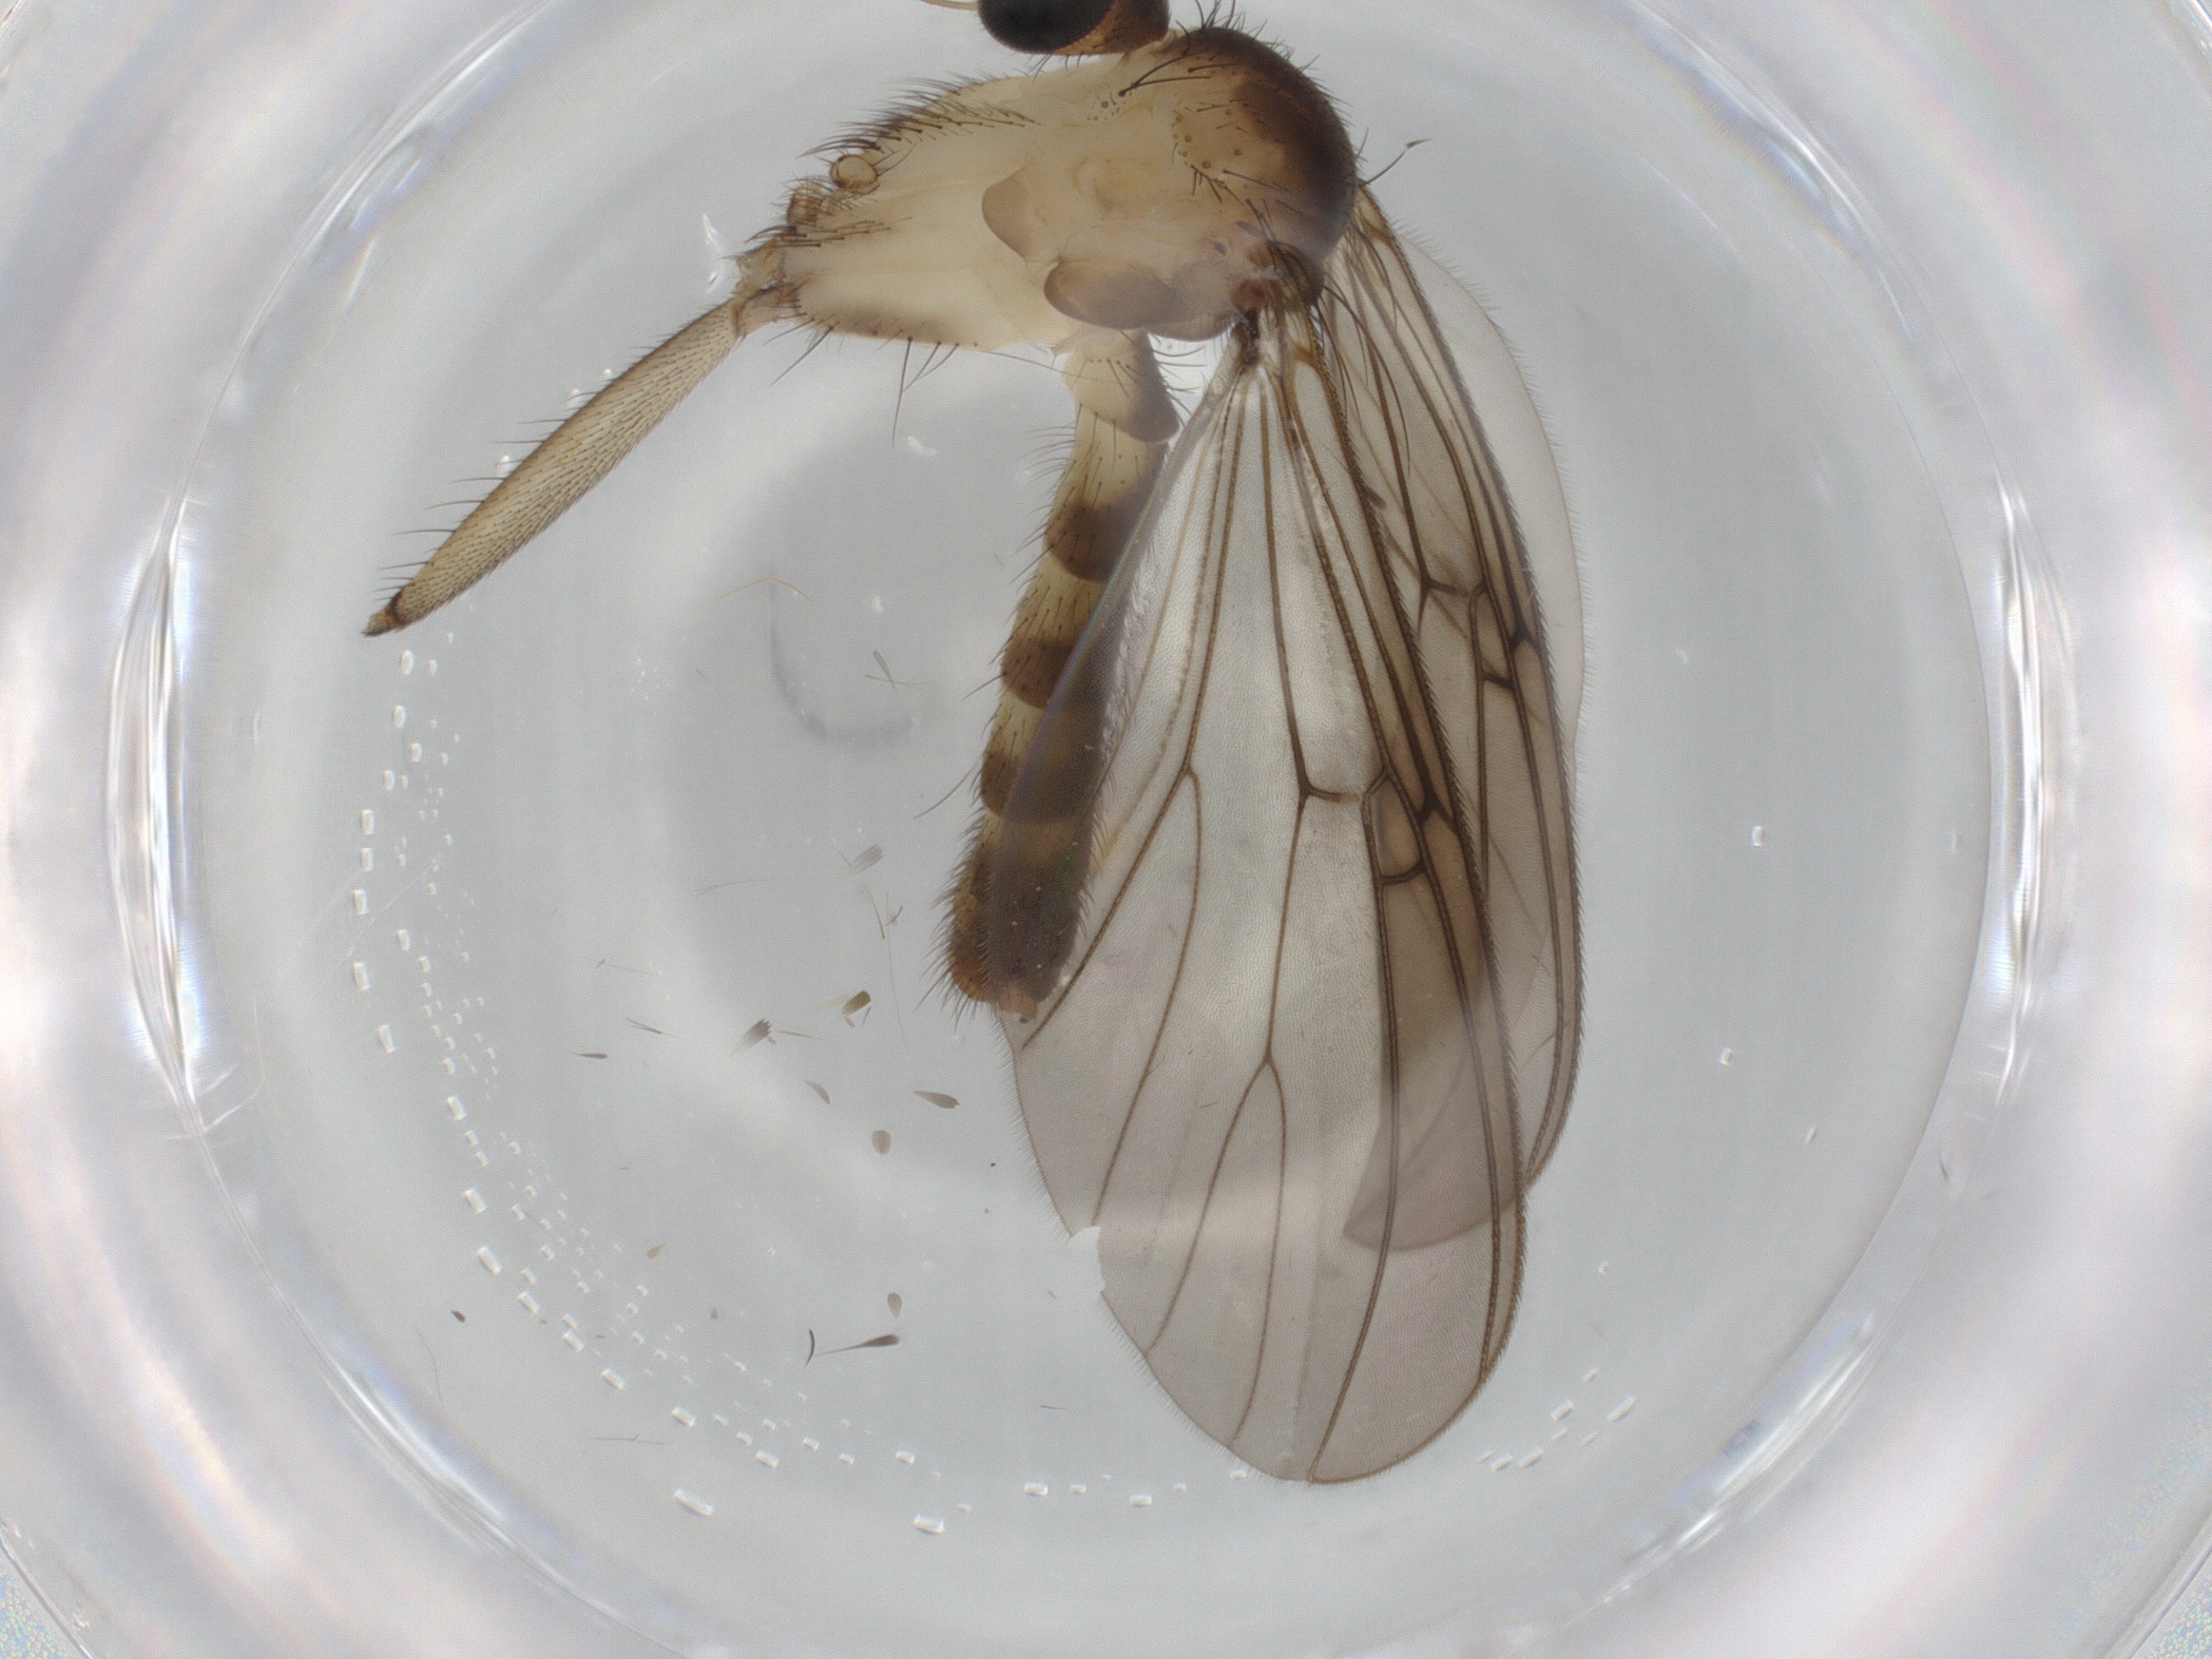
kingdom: Animalia
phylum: Arthropoda
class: Insecta
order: Diptera
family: Mycetophilidae
